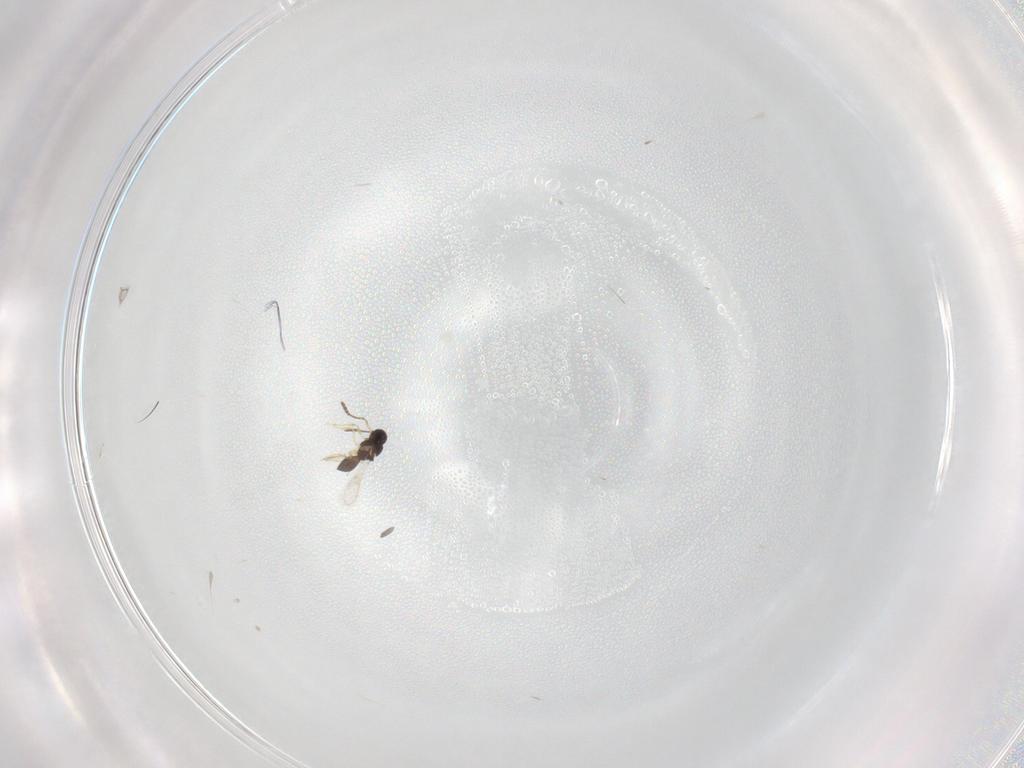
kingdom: Animalia
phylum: Arthropoda
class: Insecta
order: Hymenoptera
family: Scelionidae
